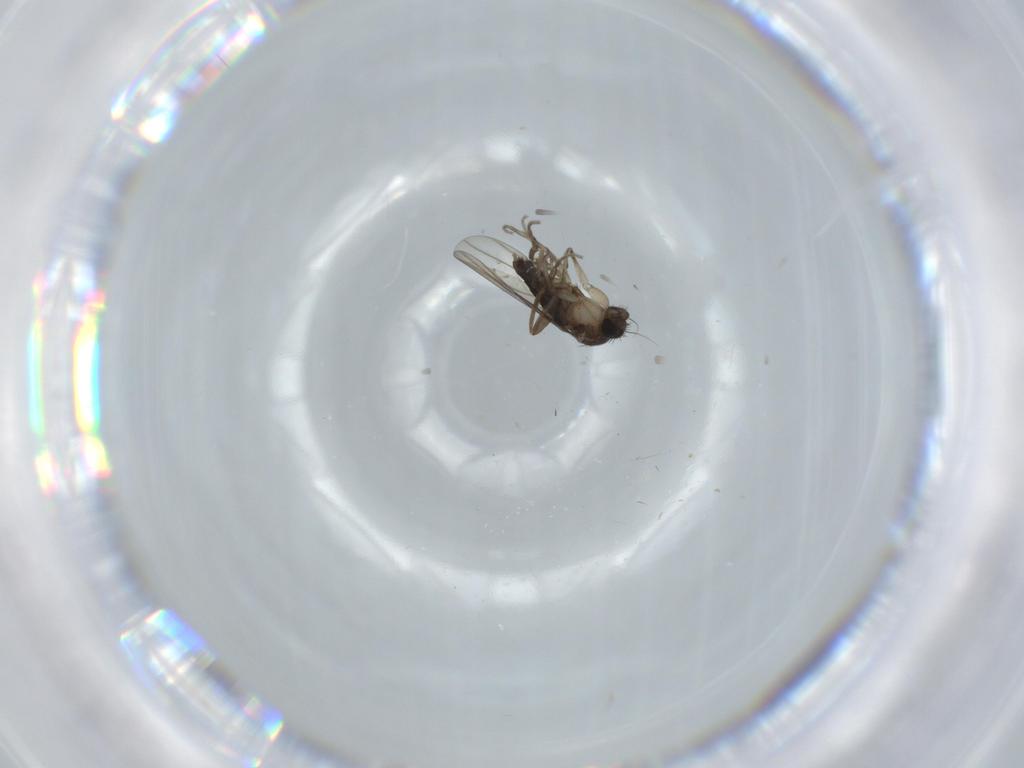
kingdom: Animalia
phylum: Arthropoda
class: Insecta
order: Diptera
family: Phoridae
